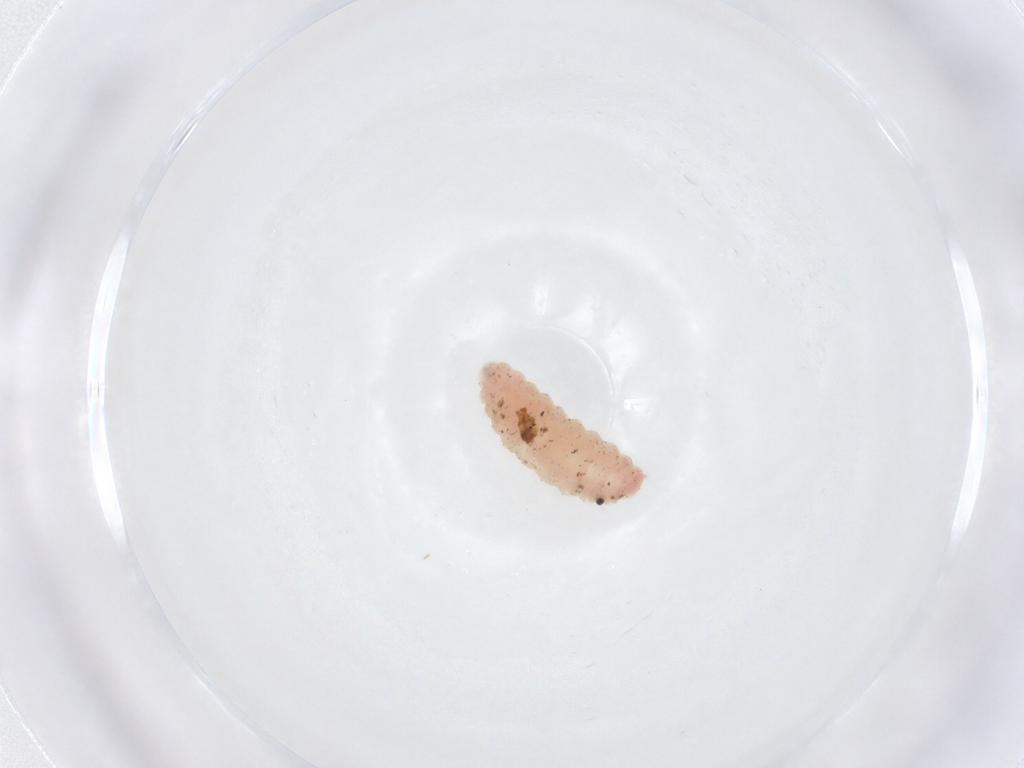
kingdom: Animalia
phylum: Arthropoda
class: Insecta
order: Diptera
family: Cecidomyiidae
